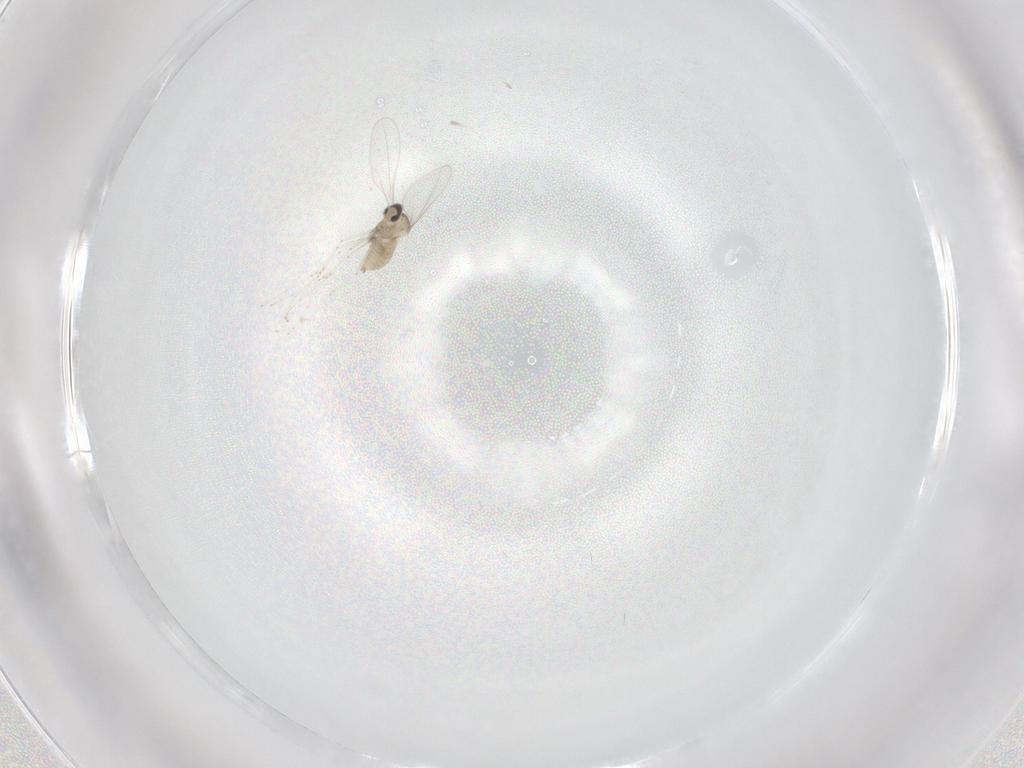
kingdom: Animalia
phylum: Arthropoda
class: Insecta
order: Diptera
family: Cecidomyiidae
